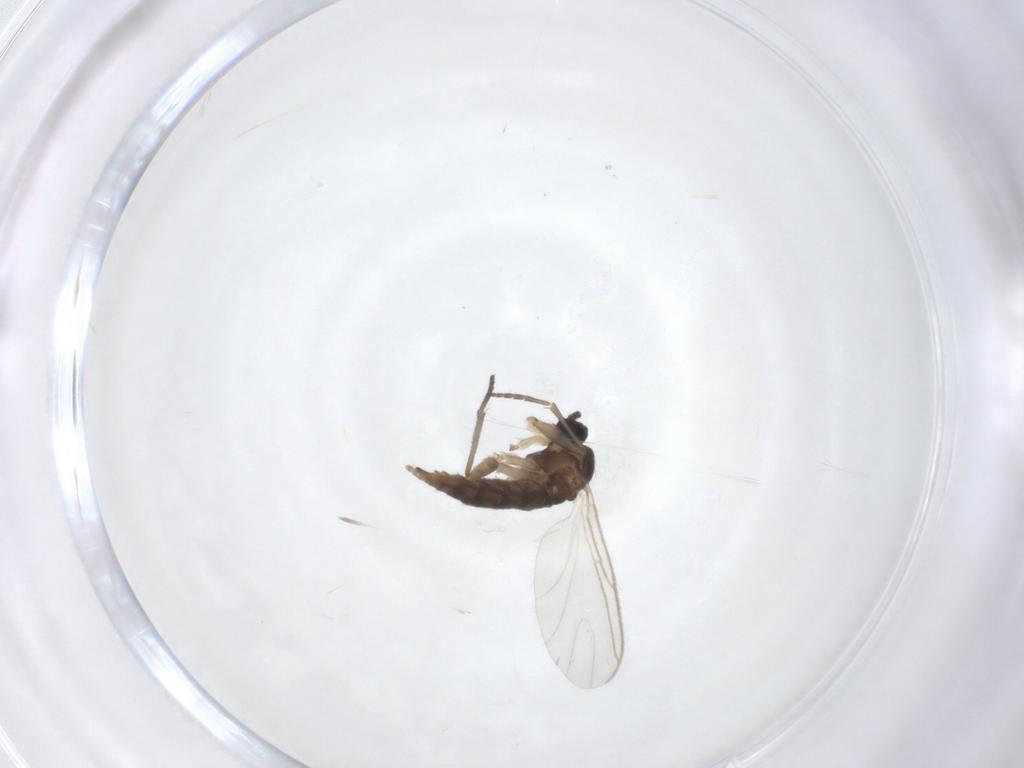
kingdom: Animalia
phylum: Arthropoda
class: Insecta
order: Diptera
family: Sciaridae
